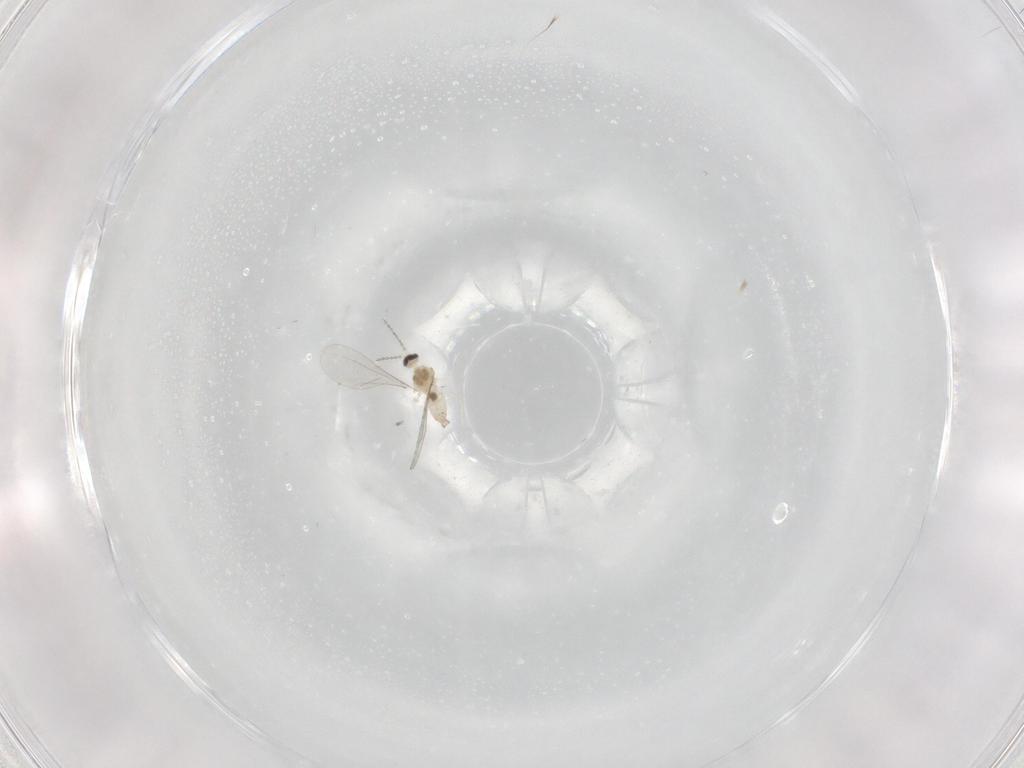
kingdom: Animalia
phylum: Arthropoda
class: Insecta
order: Diptera
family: Cecidomyiidae
